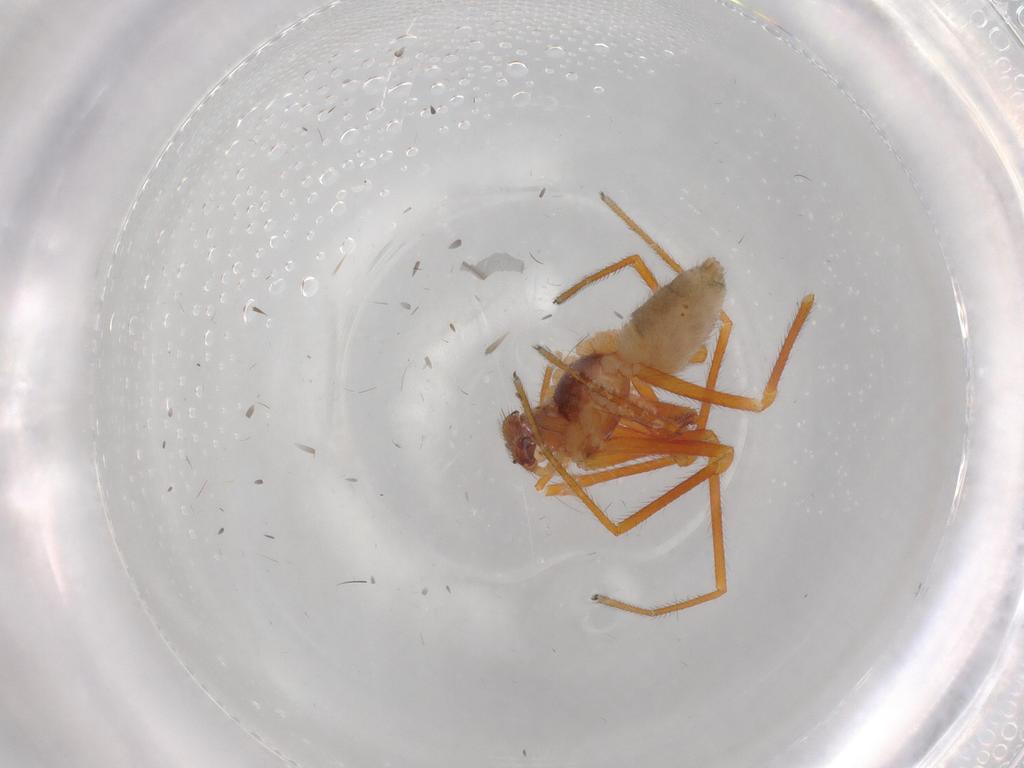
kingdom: Animalia
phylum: Arthropoda
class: Arachnida
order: Araneae
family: Linyphiidae
